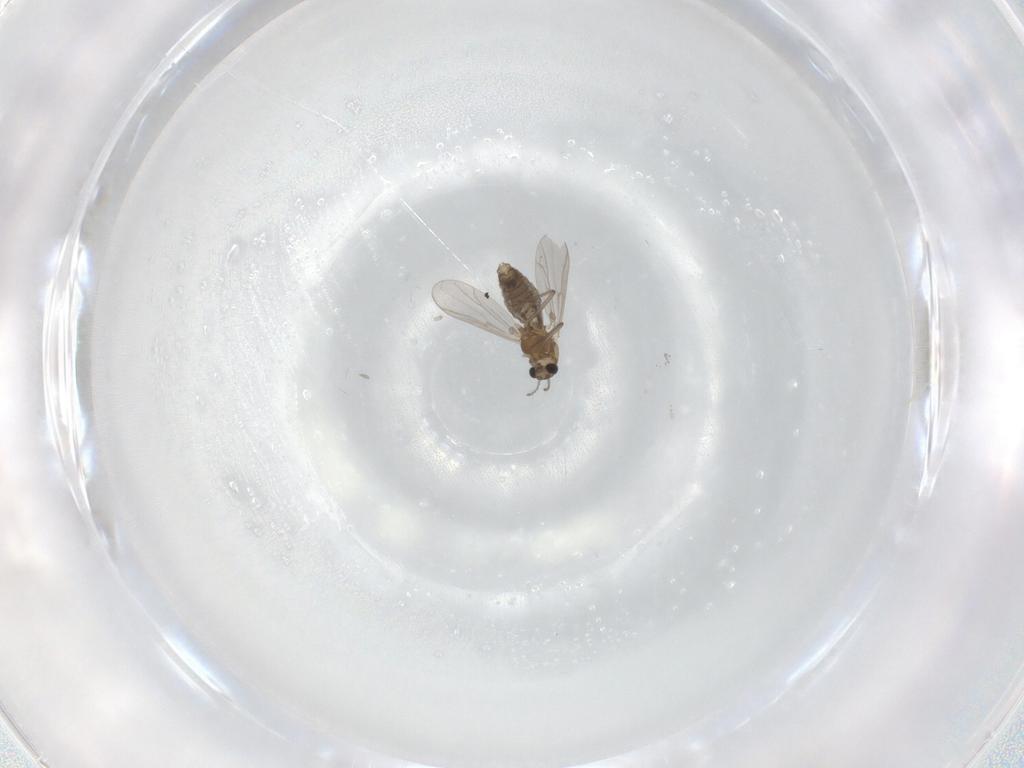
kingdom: Animalia
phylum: Arthropoda
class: Insecta
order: Diptera
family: Chironomidae
